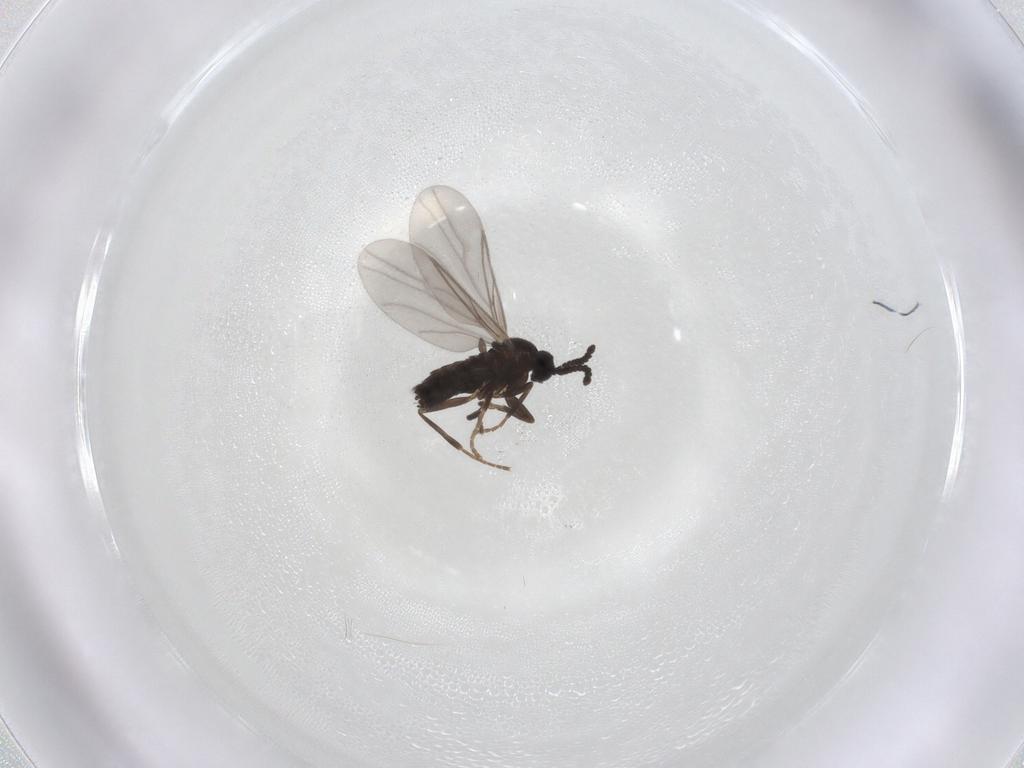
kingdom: Animalia
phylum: Arthropoda
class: Insecta
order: Diptera
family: Scatopsidae
